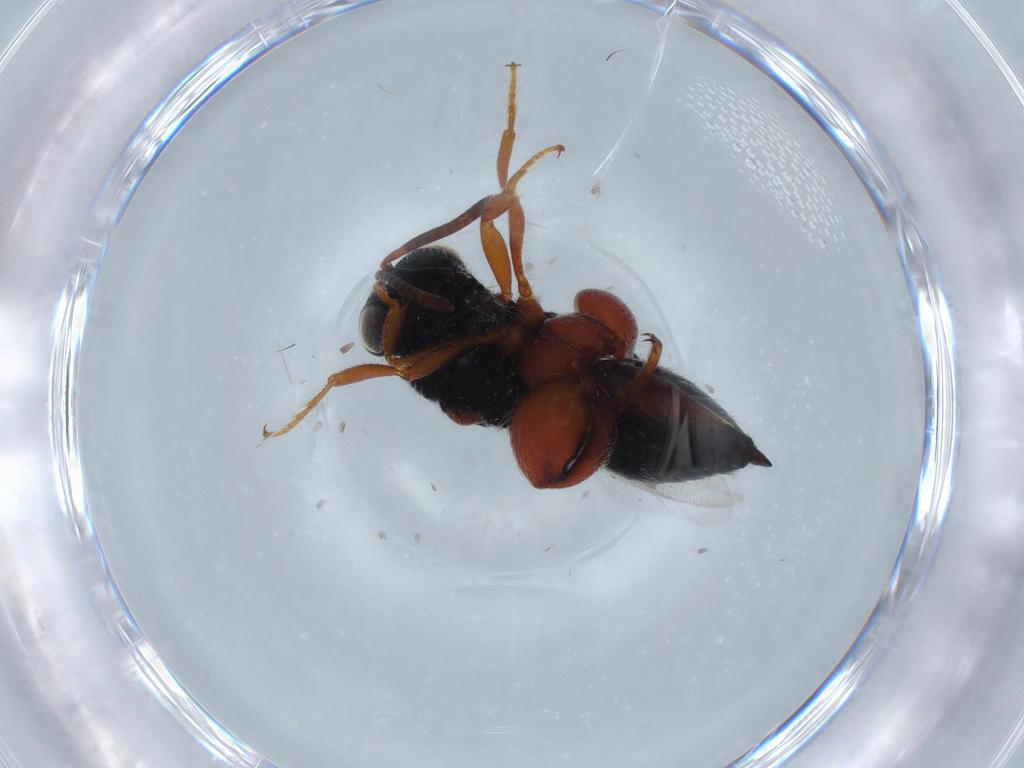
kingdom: Animalia
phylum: Arthropoda
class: Insecta
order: Hymenoptera
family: Chalcididae
